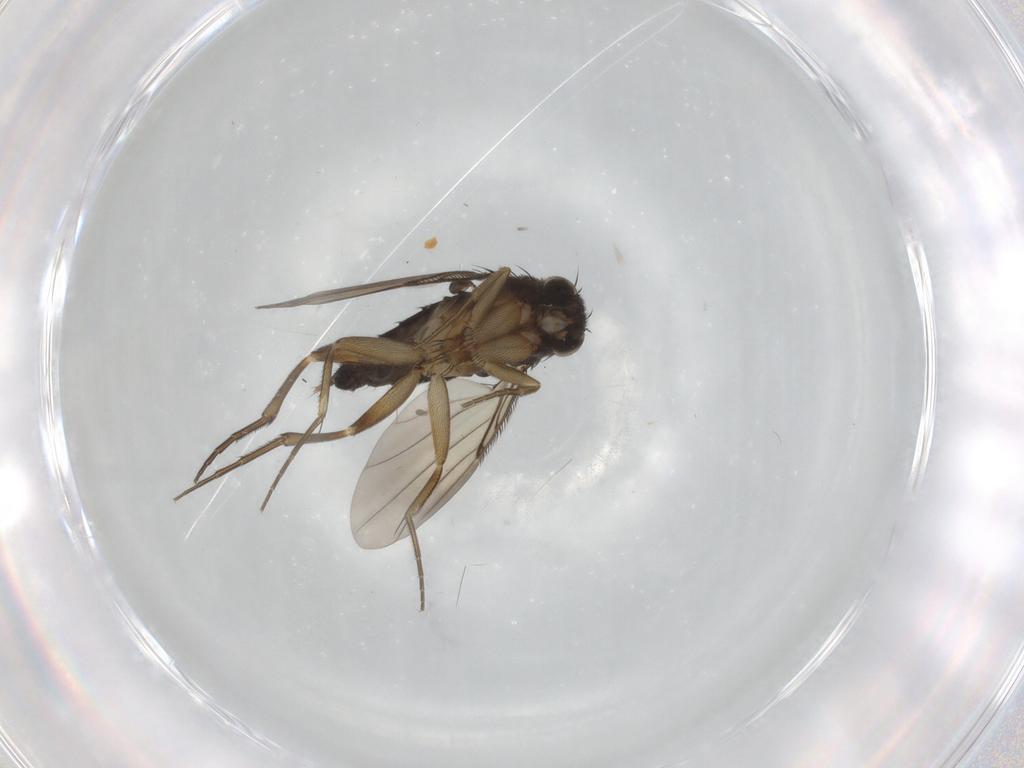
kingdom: Animalia
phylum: Arthropoda
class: Insecta
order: Diptera
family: Phoridae
